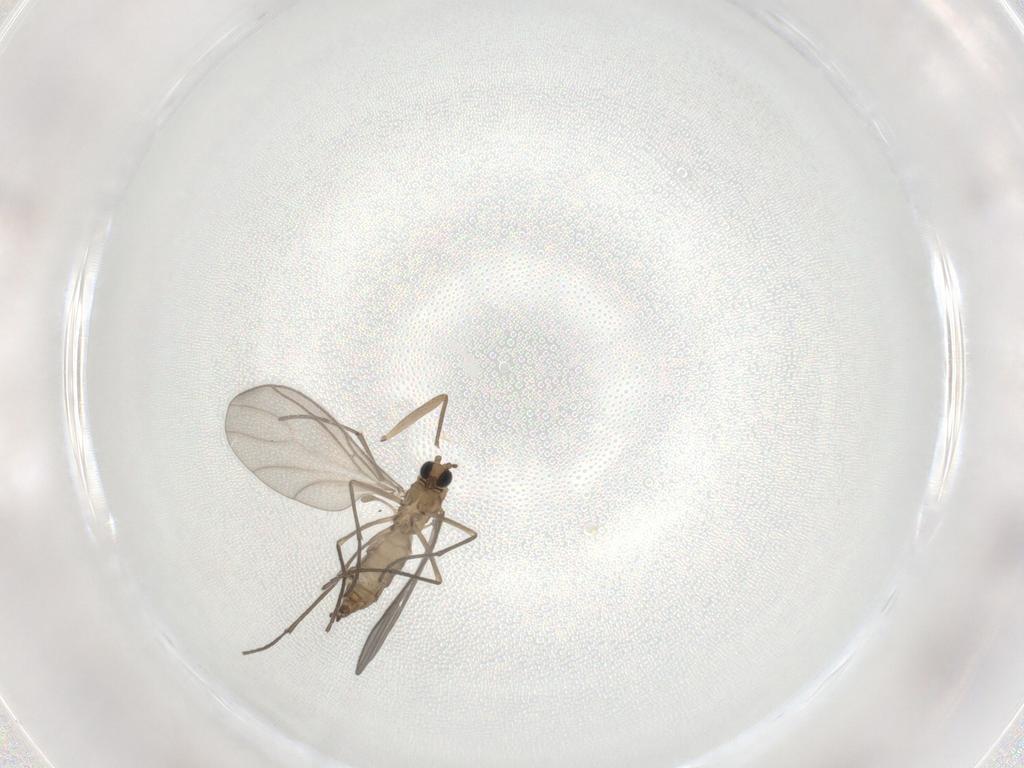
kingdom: Animalia
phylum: Arthropoda
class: Insecta
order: Diptera
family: Sciaridae
